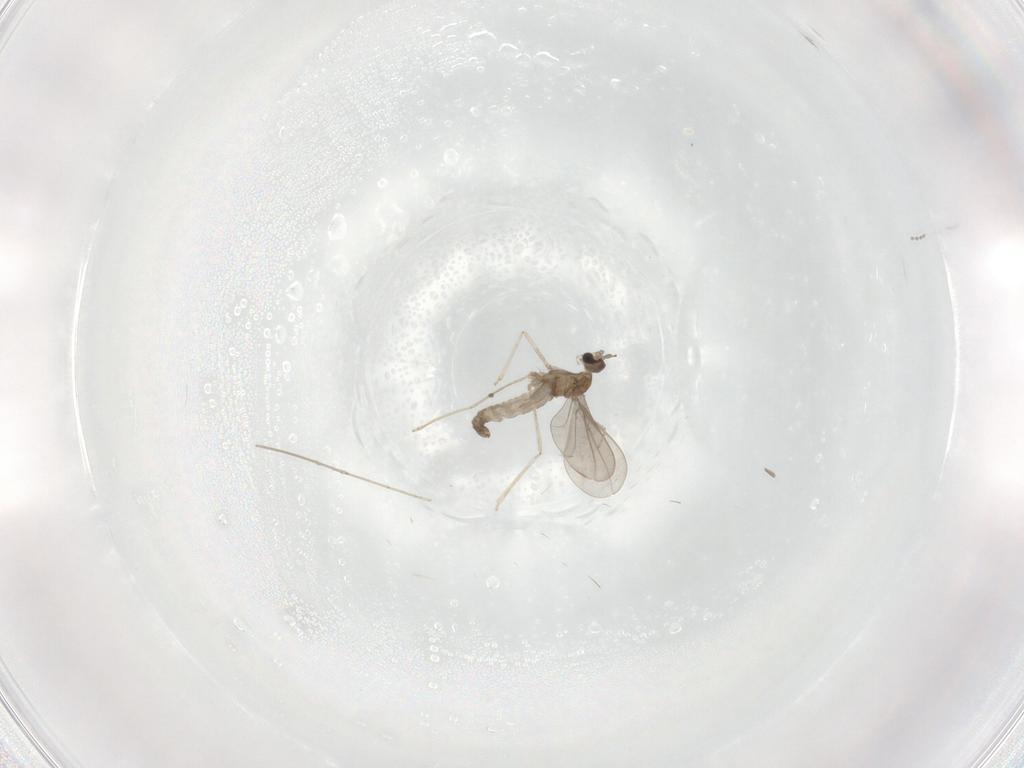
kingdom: Animalia
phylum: Arthropoda
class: Insecta
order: Diptera
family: Cecidomyiidae
